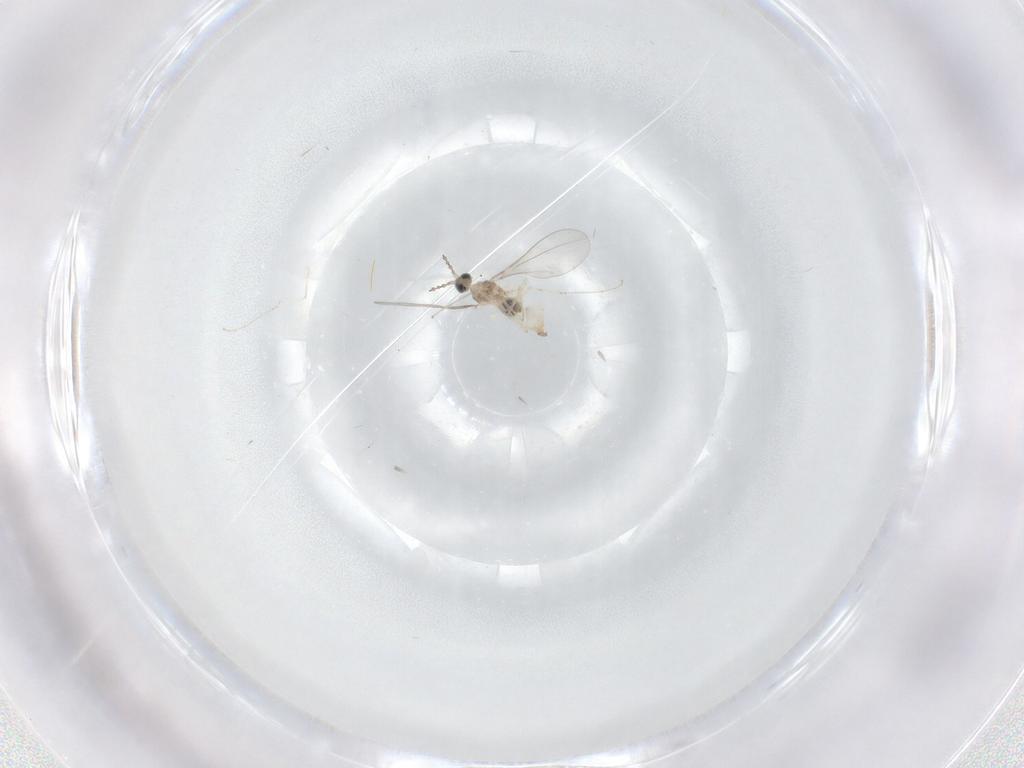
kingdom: Animalia
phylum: Arthropoda
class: Insecta
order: Diptera
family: Cecidomyiidae
